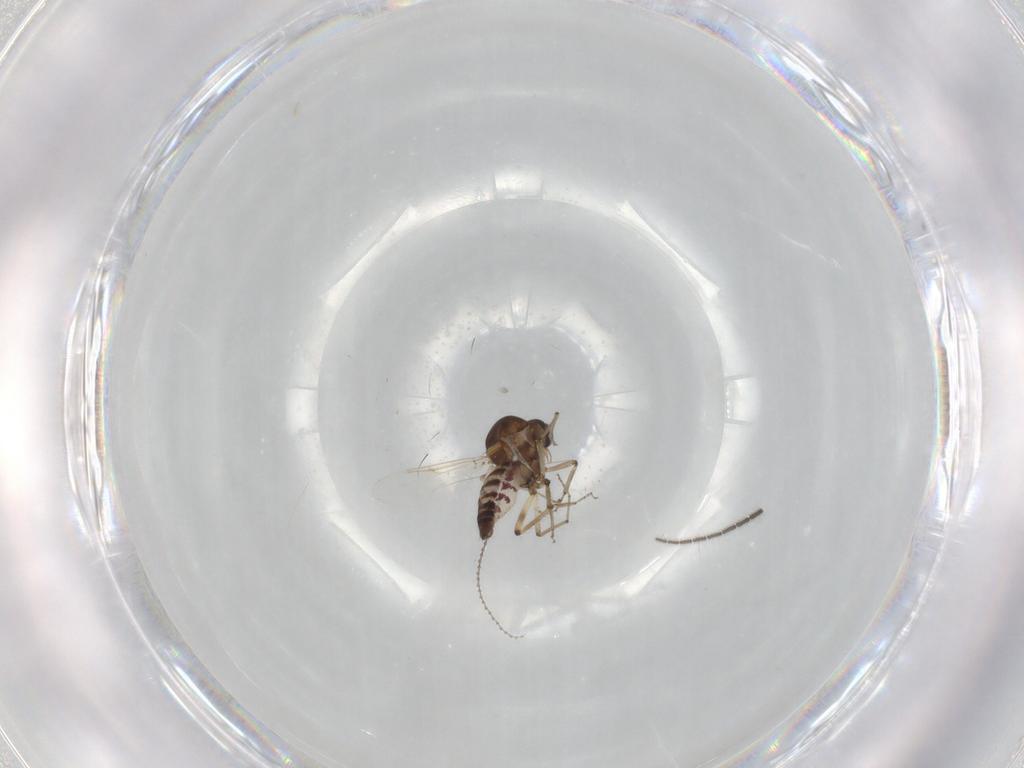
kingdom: Animalia
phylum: Arthropoda
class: Insecta
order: Diptera
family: Ceratopogonidae
